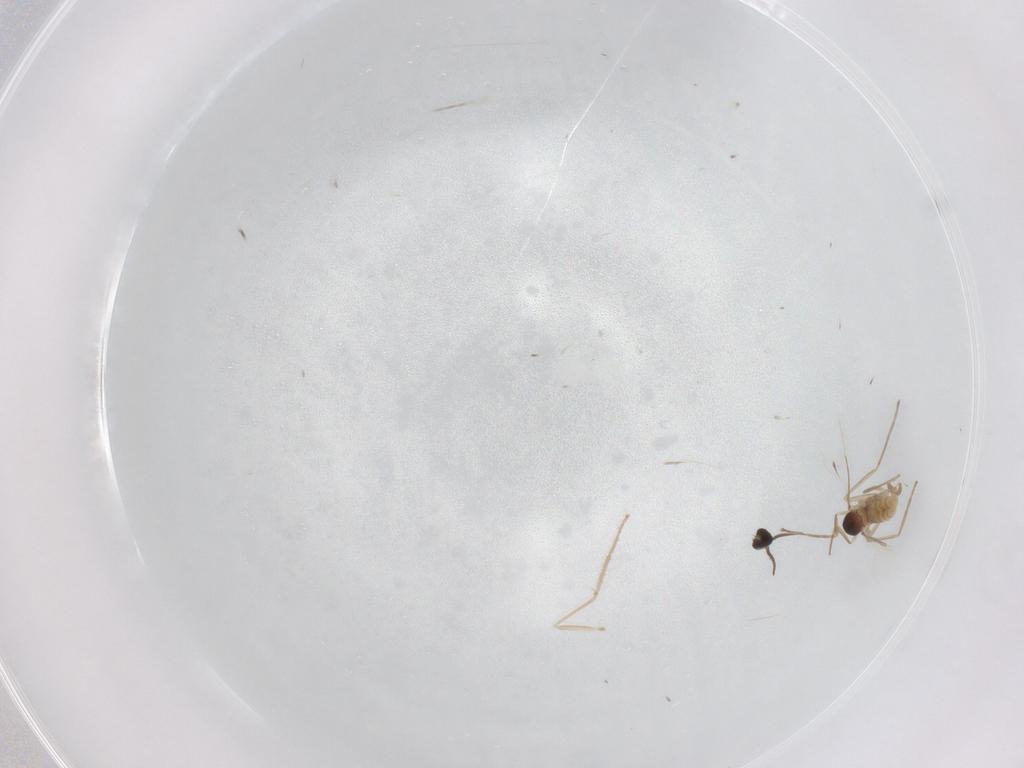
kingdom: Animalia
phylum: Arthropoda
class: Insecta
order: Diptera
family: Cecidomyiidae
